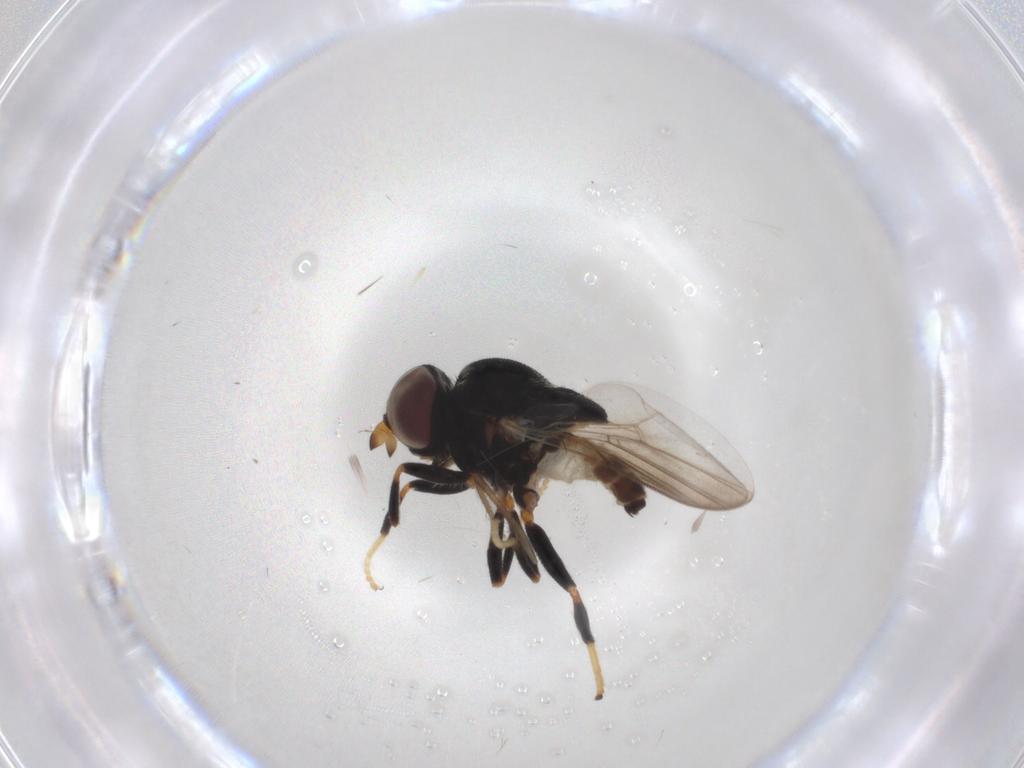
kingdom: Animalia
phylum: Arthropoda
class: Insecta
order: Diptera
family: Chloropidae
